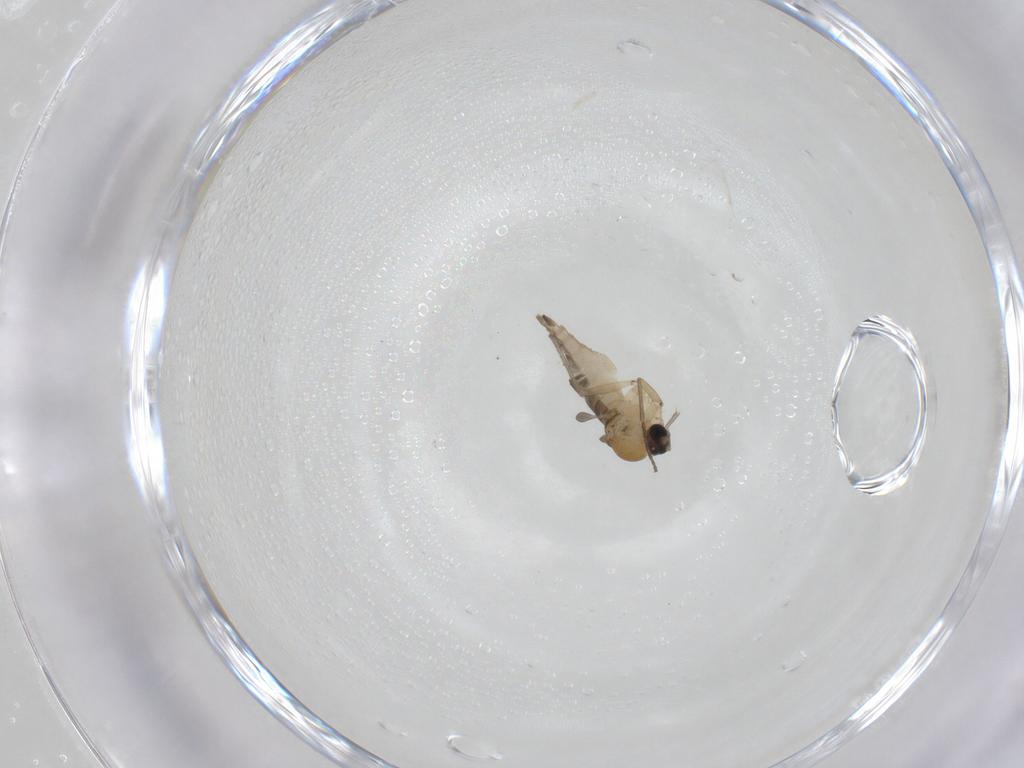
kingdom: Animalia
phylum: Arthropoda
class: Insecta
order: Diptera
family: Sciaridae
